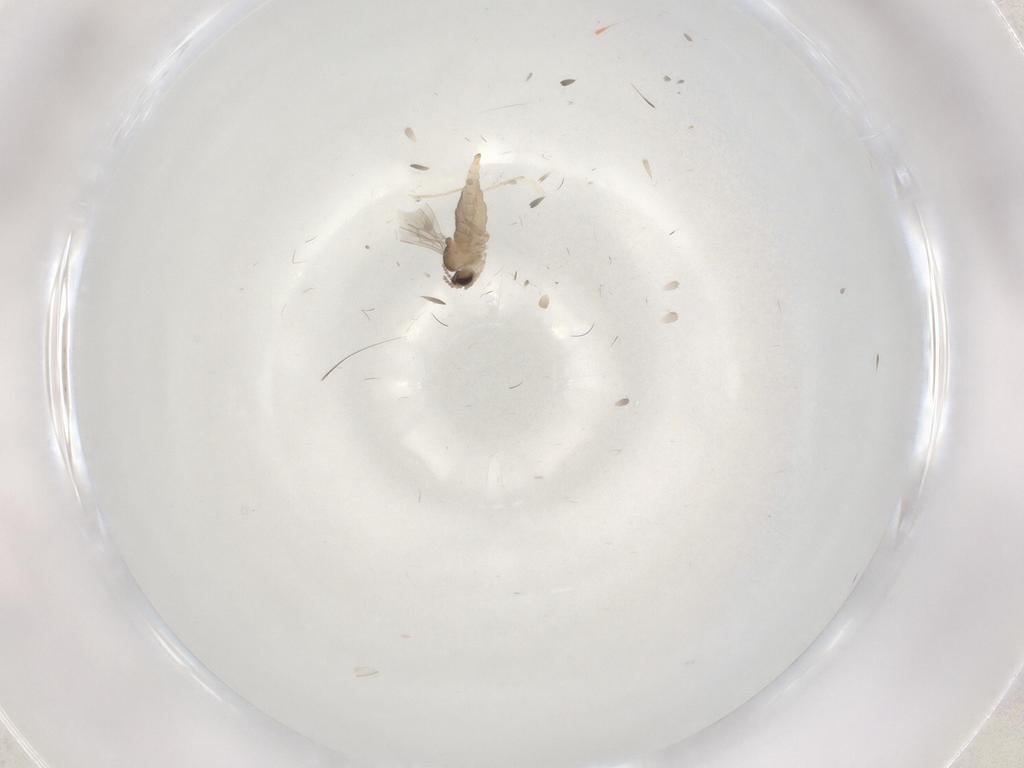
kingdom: Animalia
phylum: Arthropoda
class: Insecta
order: Diptera
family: Cecidomyiidae
